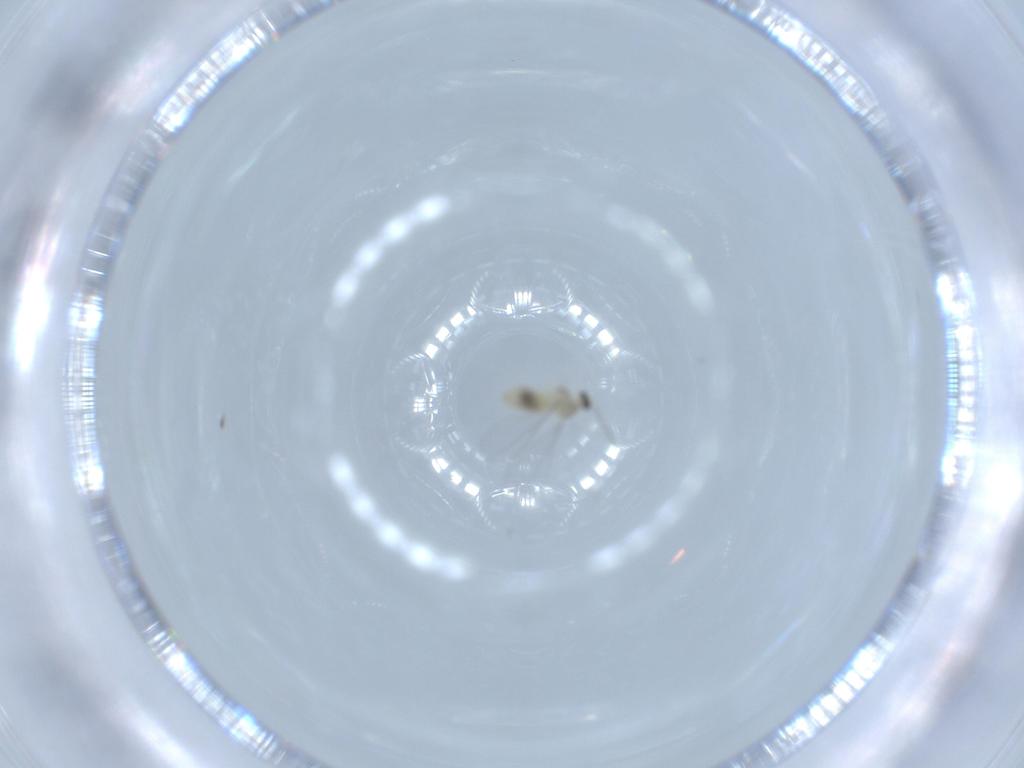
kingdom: Animalia
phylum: Arthropoda
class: Insecta
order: Diptera
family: Cecidomyiidae
